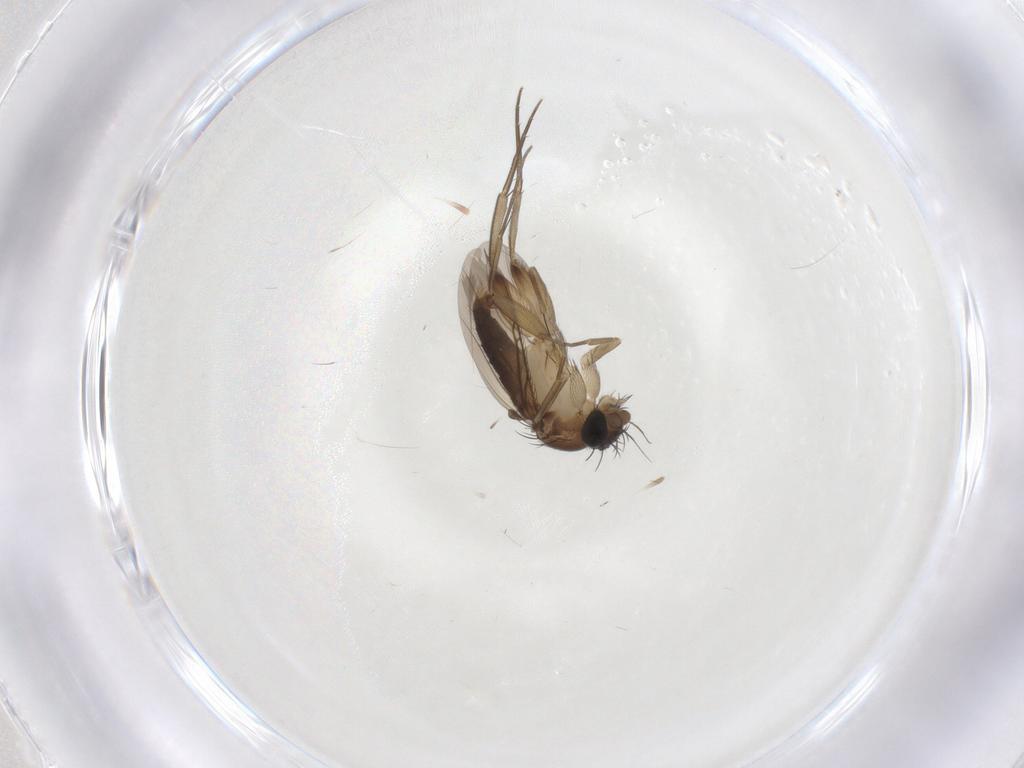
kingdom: Animalia
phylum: Arthropoda
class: Insecta
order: Diptera
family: Phoridae
